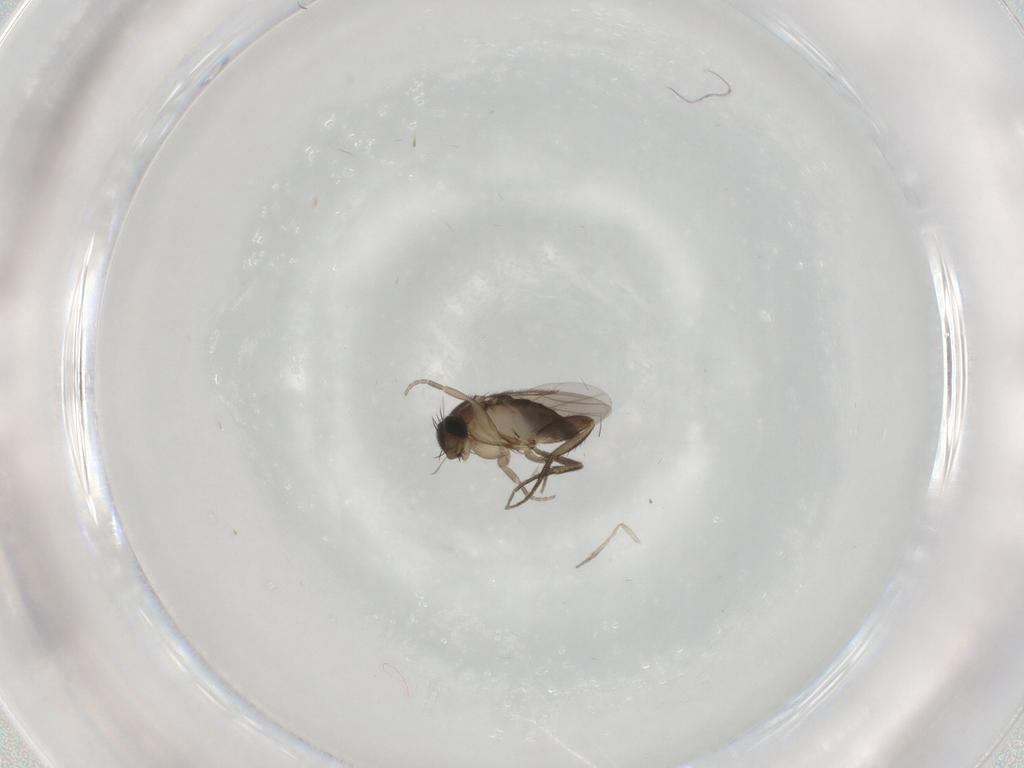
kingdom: Animalia
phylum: Arthropoda
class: Insecta
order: Diptera
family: Phoridae
